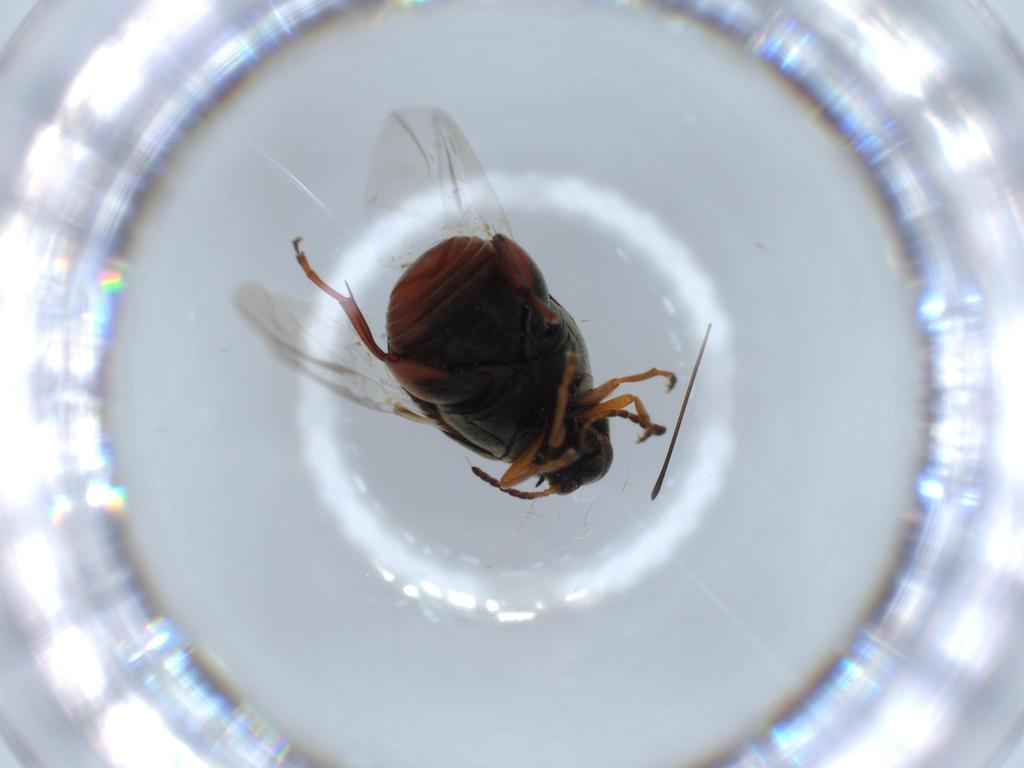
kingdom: Animalia
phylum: Arthropoda
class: Insecta
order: Coleoptera
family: Chrysomelidae
